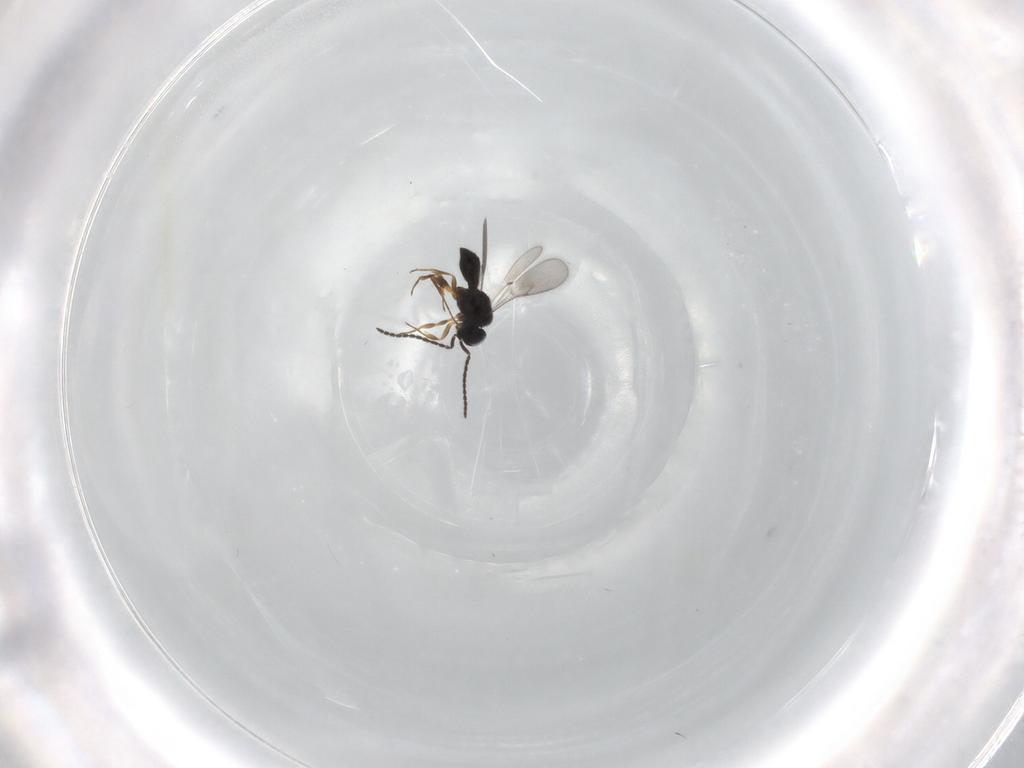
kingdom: Animalia
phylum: Arthropoda
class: Insecta
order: Hymenoptera
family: Scelionidae
